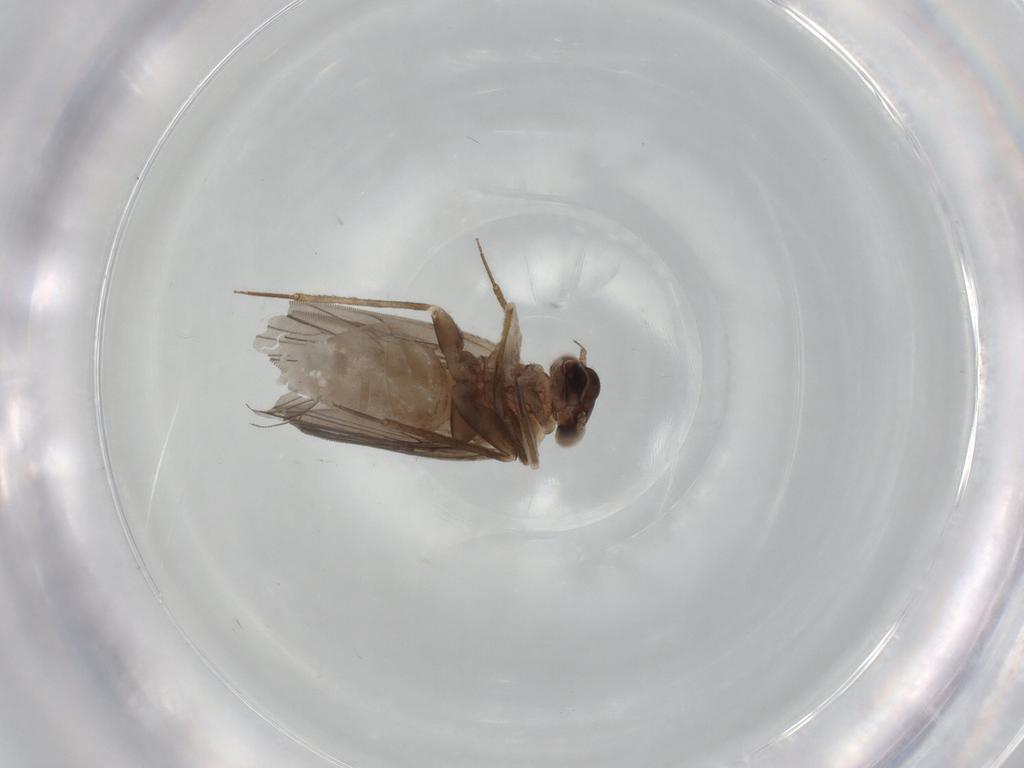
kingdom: Animalia
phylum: Arthropoda
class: Insecta
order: Psocodea
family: Lepidopsocidae
